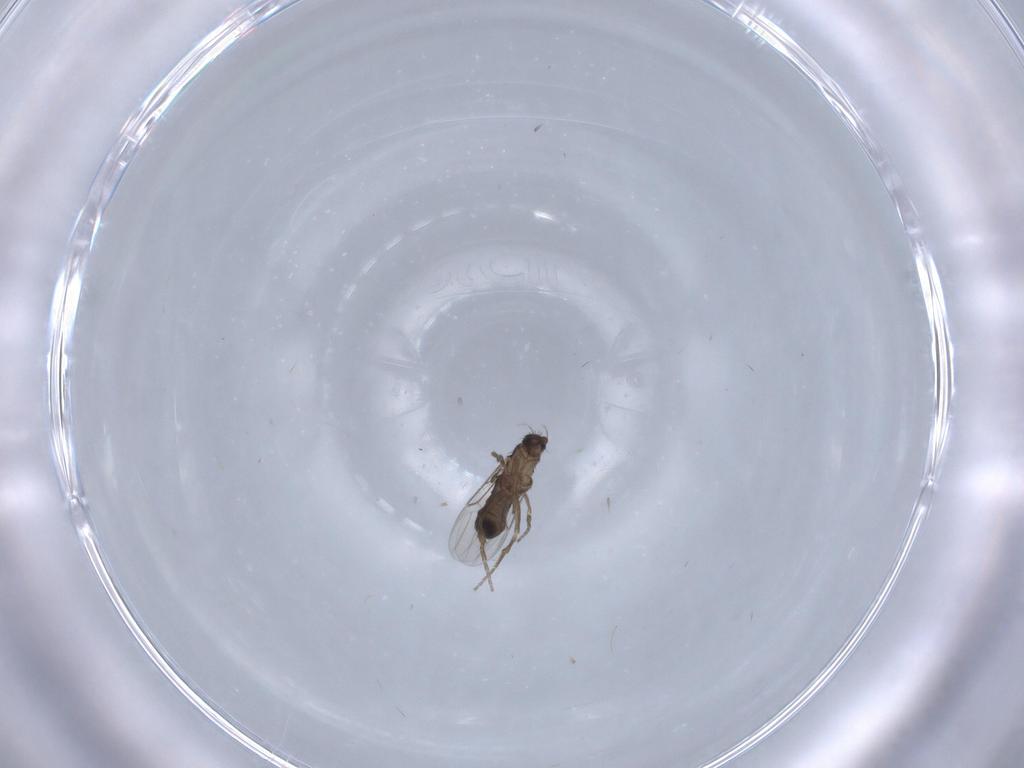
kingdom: Animalia
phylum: Arthropoda
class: Insecta
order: Diptera
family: Phoridae
